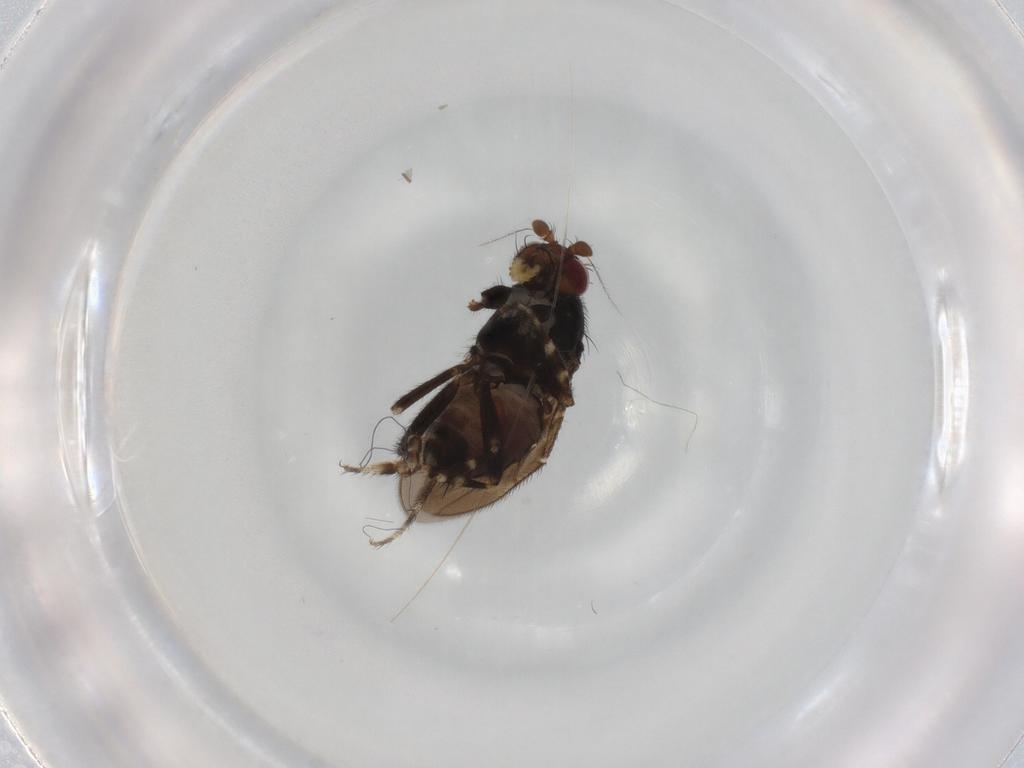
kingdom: Animalia
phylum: Arthropoda
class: Insecta
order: Diptera
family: Sphaeroceridae
